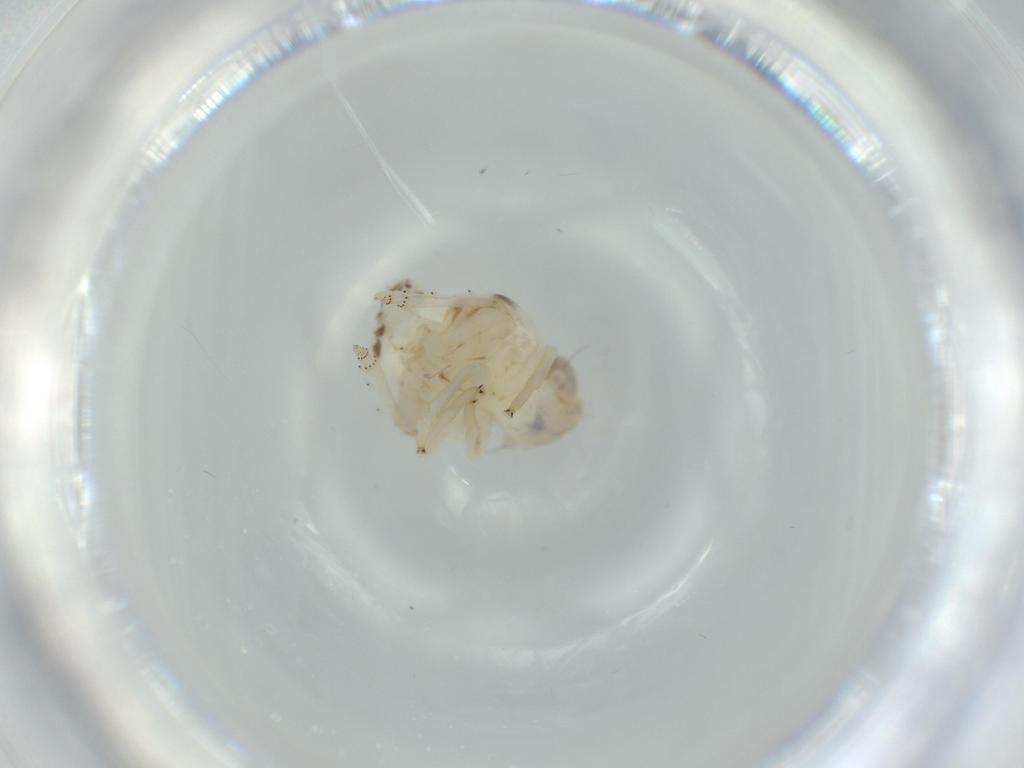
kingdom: Animalia
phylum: Arthropoda
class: Insecta
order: Hemiptera
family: Nogodinidae
